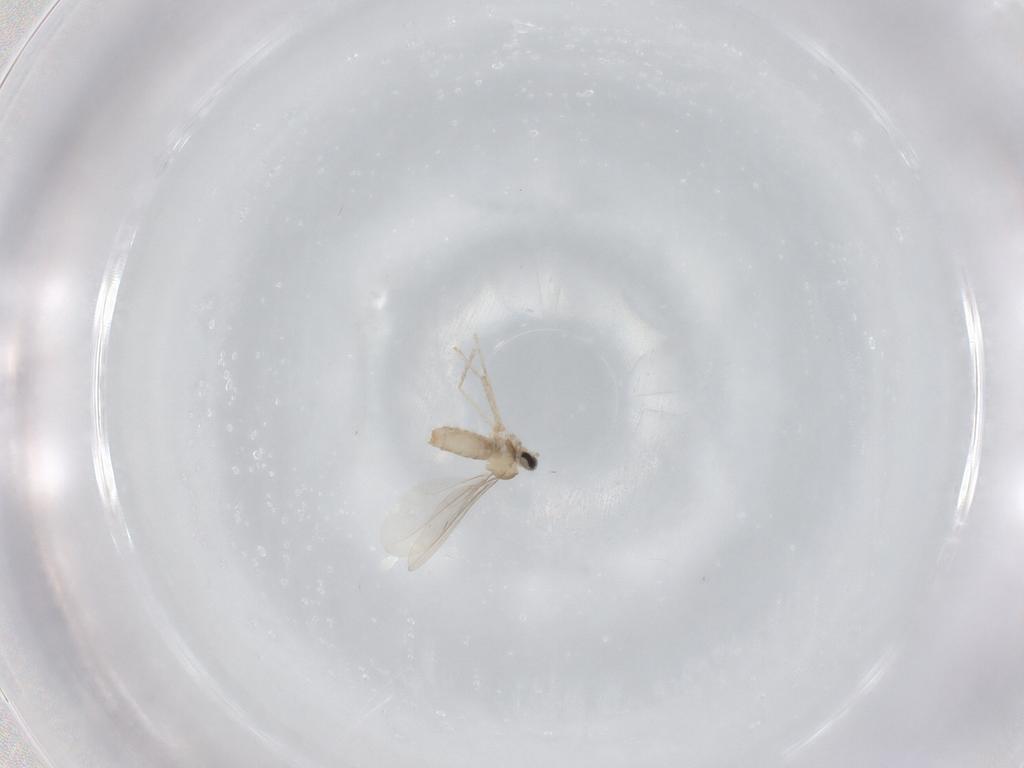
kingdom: Animalia
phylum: Arthropoda
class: Insecta
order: Diptera
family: Cecidomyiidae
